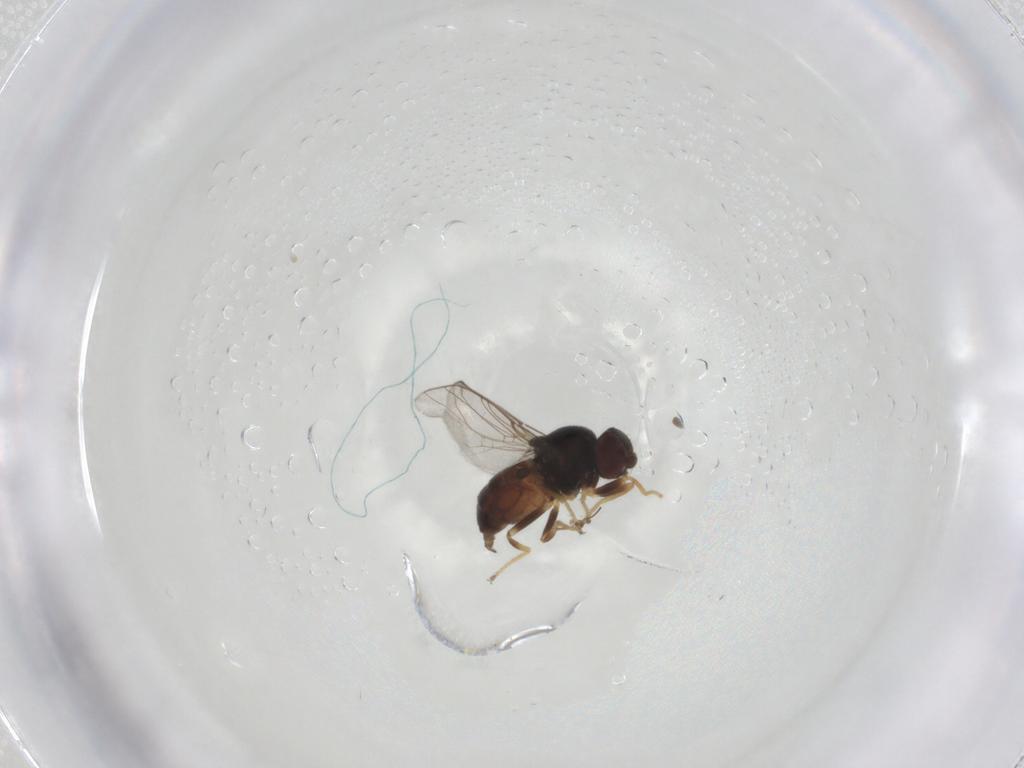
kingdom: Animalia
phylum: Arthropoda
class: Insecta
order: Diptera
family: Chloropidae
